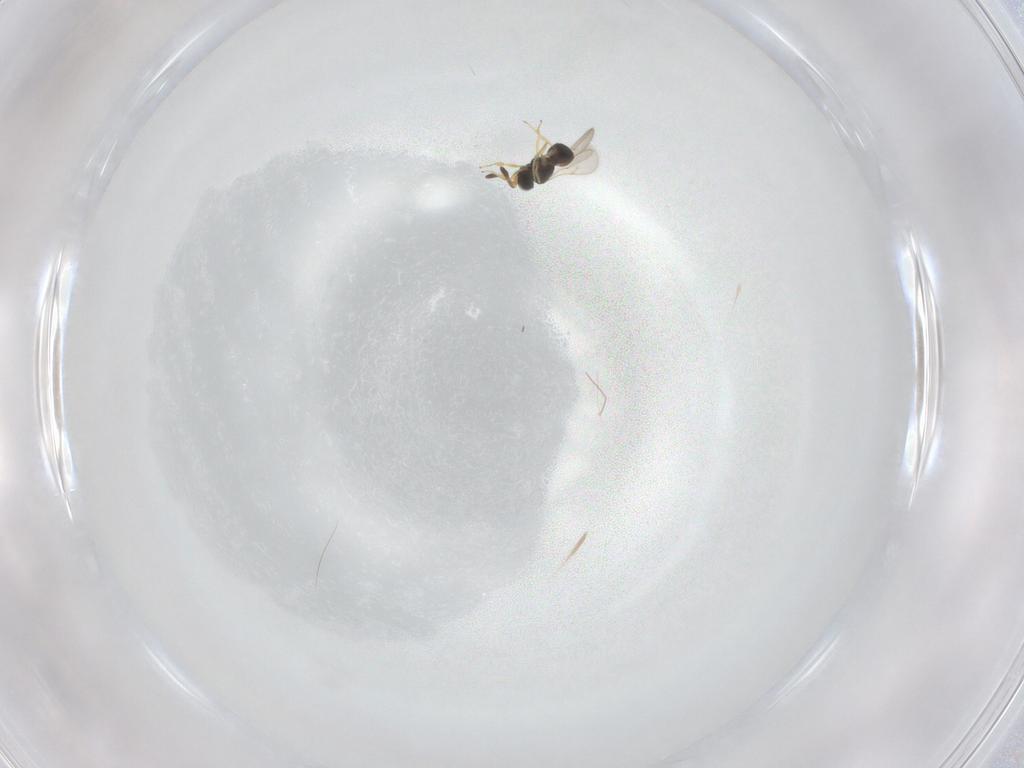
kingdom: Animalia
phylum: Arthropoda
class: Insecta
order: Hymenoptera
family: Scelionidae
